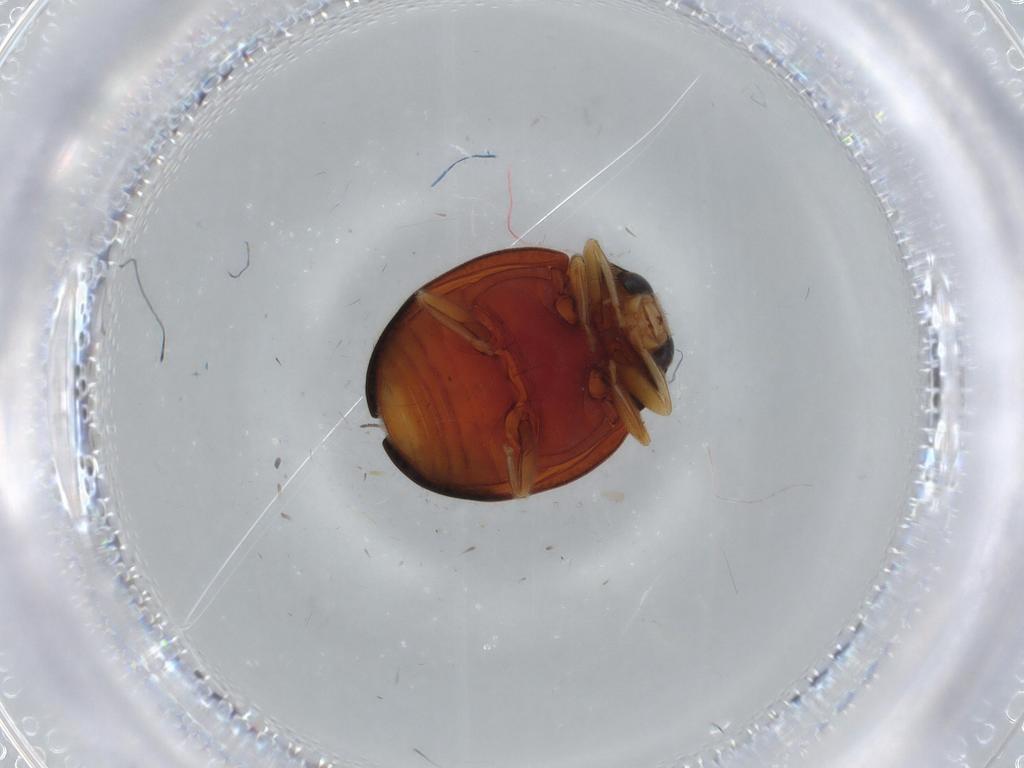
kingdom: Animalia
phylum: Arthropoda
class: Insecta
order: Coleoptera
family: Coccinellidae
